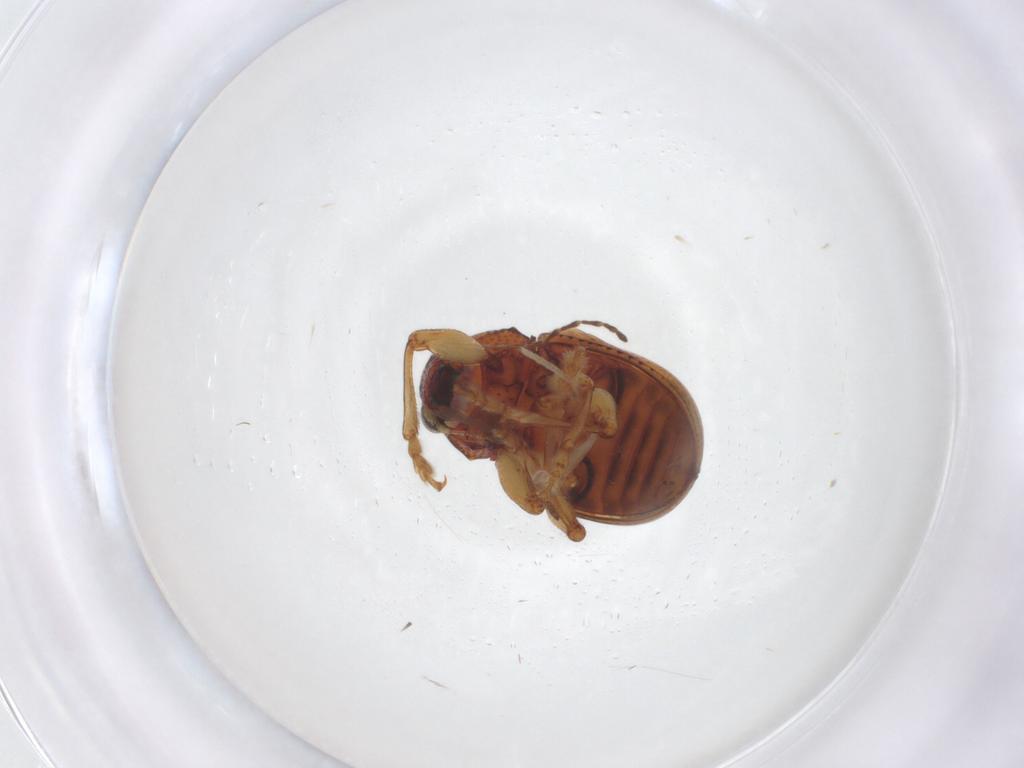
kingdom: Animalia
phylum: Arthropoda
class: Insecta
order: Coleoptera
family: Chrysomelidae
